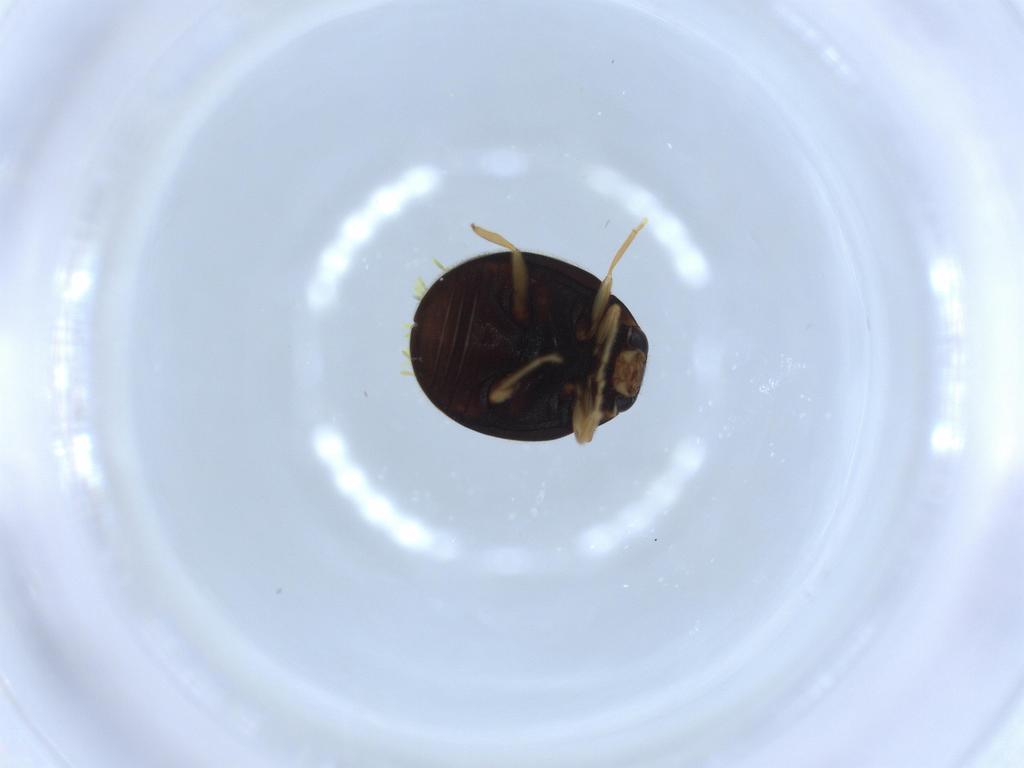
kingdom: Animalia
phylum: Arthropoda
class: Insecta
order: Coleoptera
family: Coccinellidae
